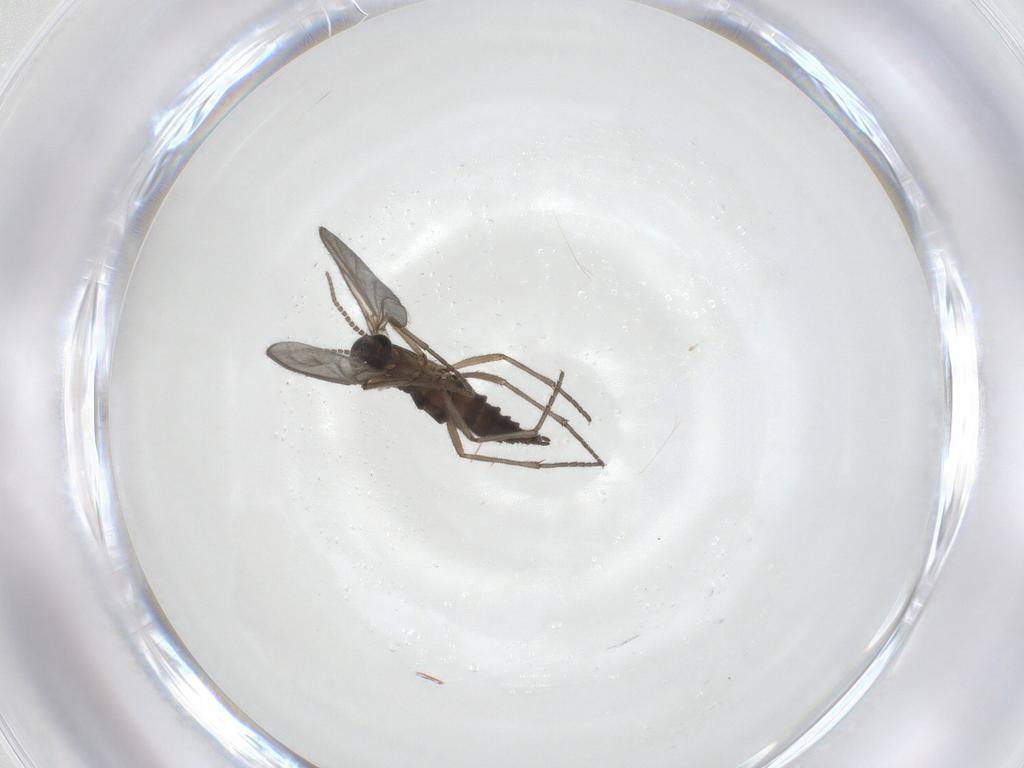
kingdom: Animalia
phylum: Arthropoda
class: Insecta
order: Diptera
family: Sciaridae
